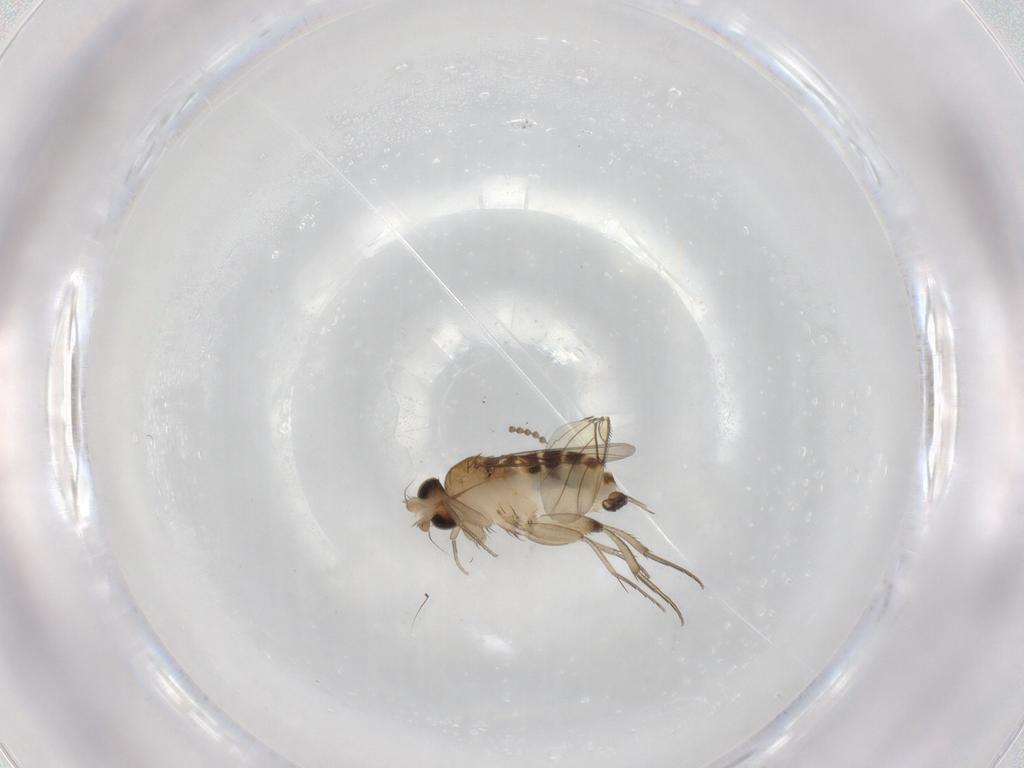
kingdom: Animalia
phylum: Arthropoda
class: Insecta
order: Diptera
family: Phoridae
